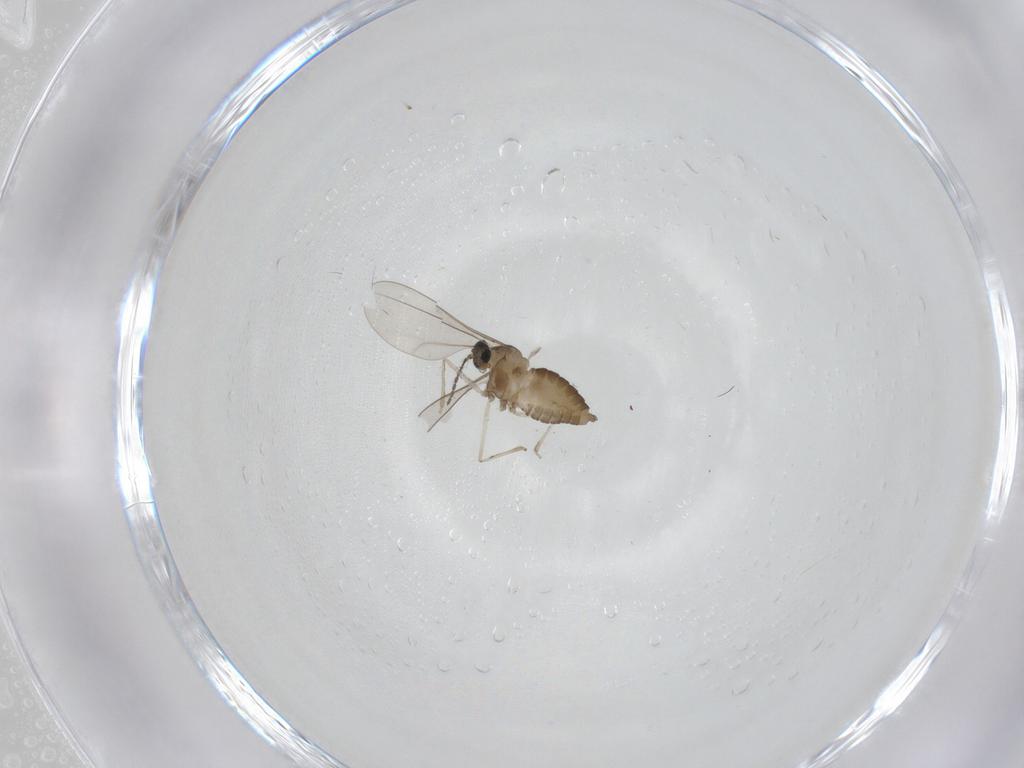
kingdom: Animalia
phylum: Arthropoda
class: Insecta
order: Diptera
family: Cecidomyiidae
